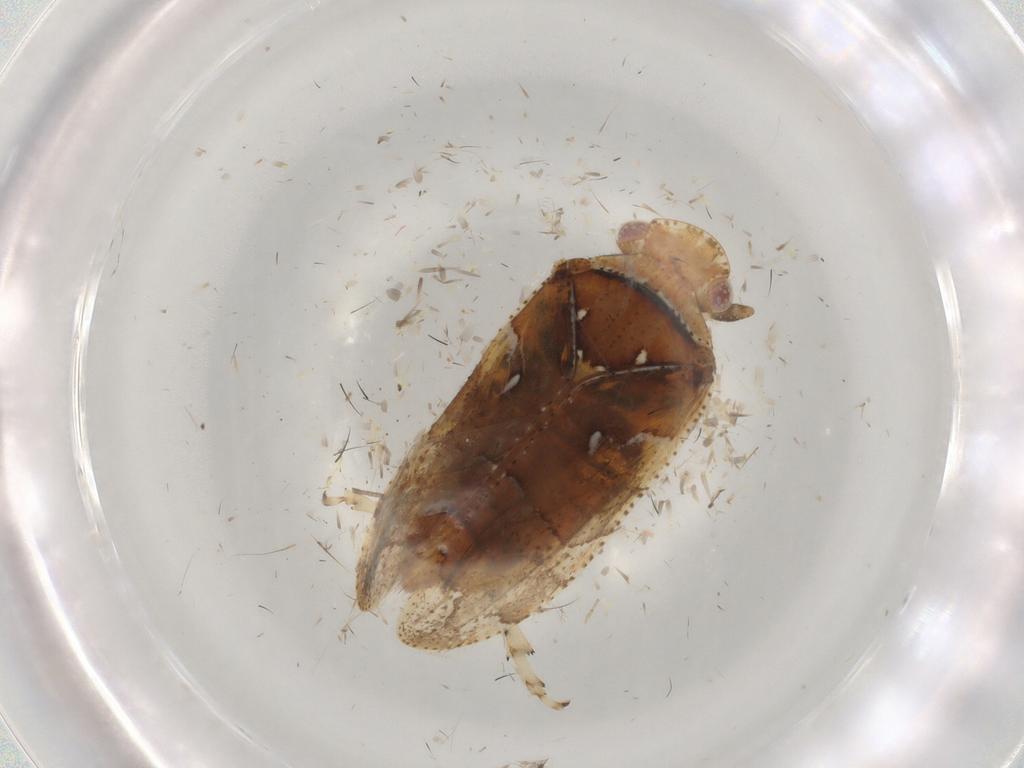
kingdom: Animalia
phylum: Arthropoda
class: Insecta
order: Hemiptera
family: Tettigometridae
